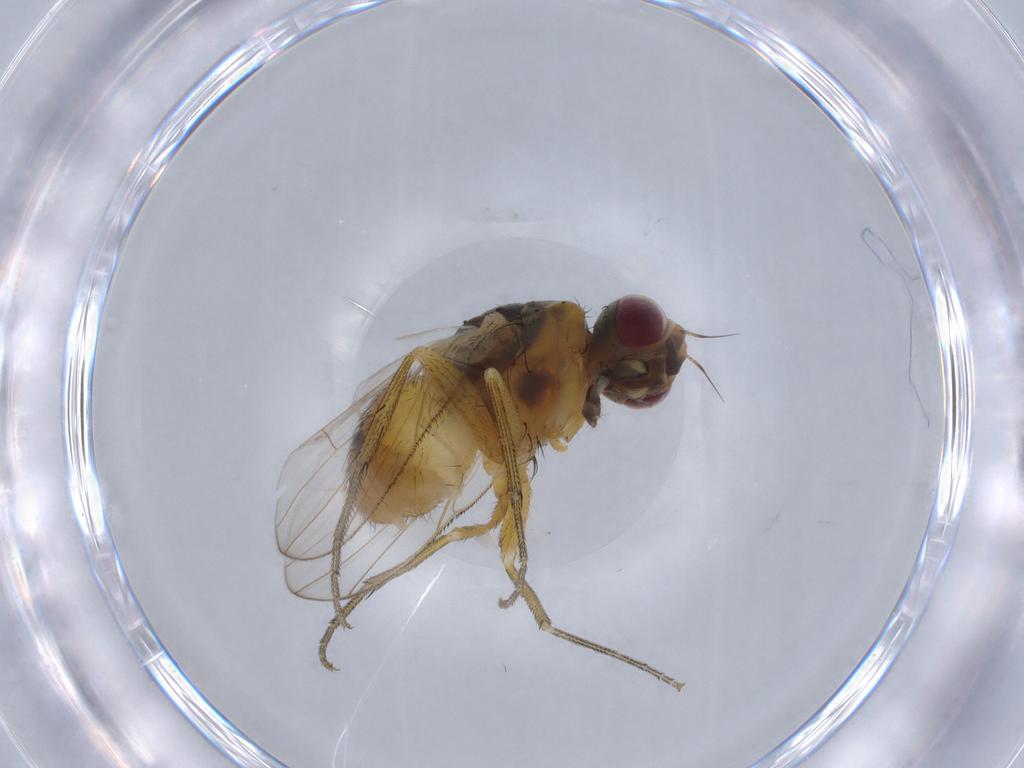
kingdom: Animalia
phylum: Arthropoda
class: Insecta
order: Diptera
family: Muscidae
